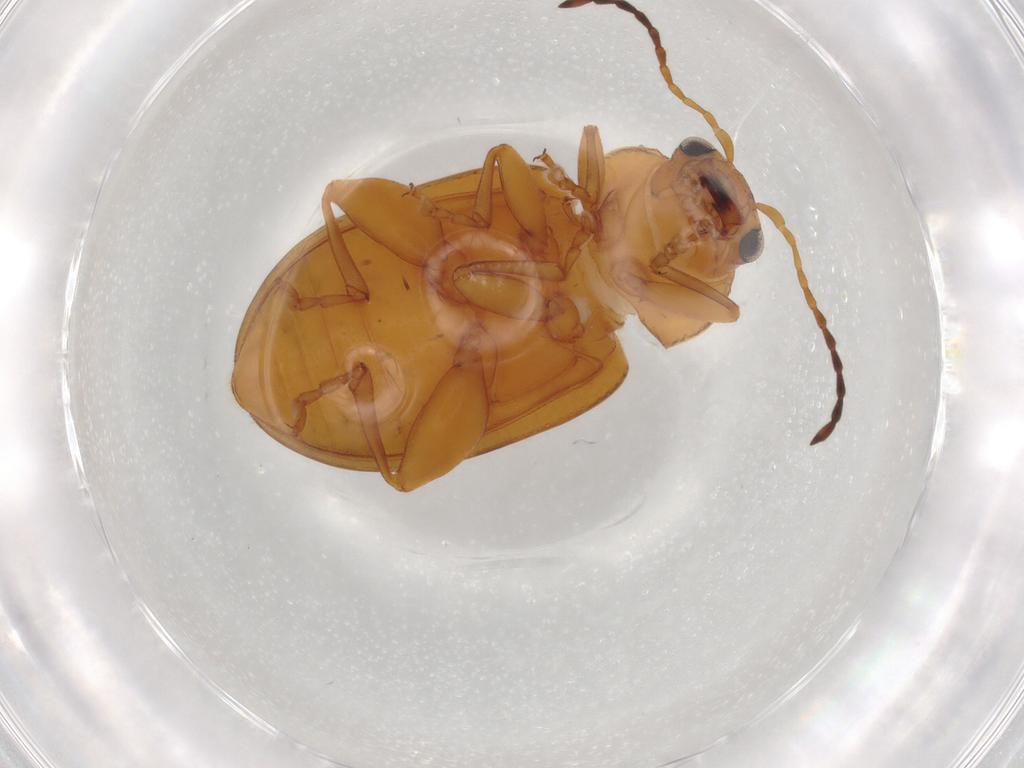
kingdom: Animalia
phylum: Arthropoda
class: Insecta
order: Coleoptera
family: Chrysomelidae
